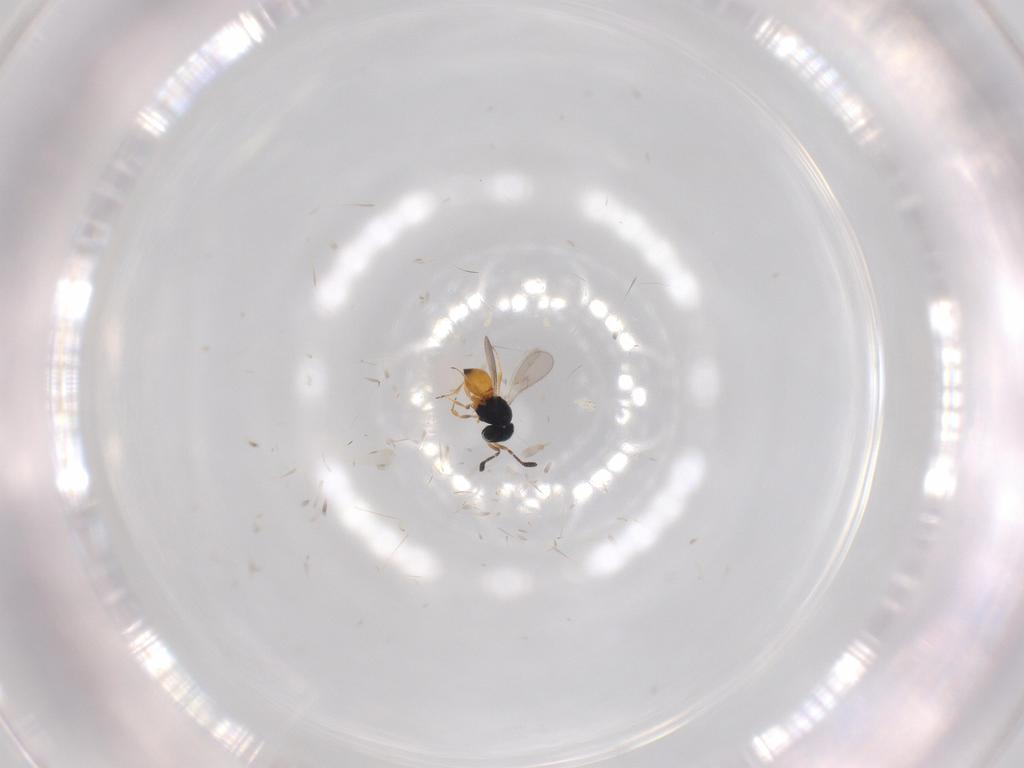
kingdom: Animalia
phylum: Arthropoda
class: Insecta
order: Hymenoptera
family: Scelionidae
